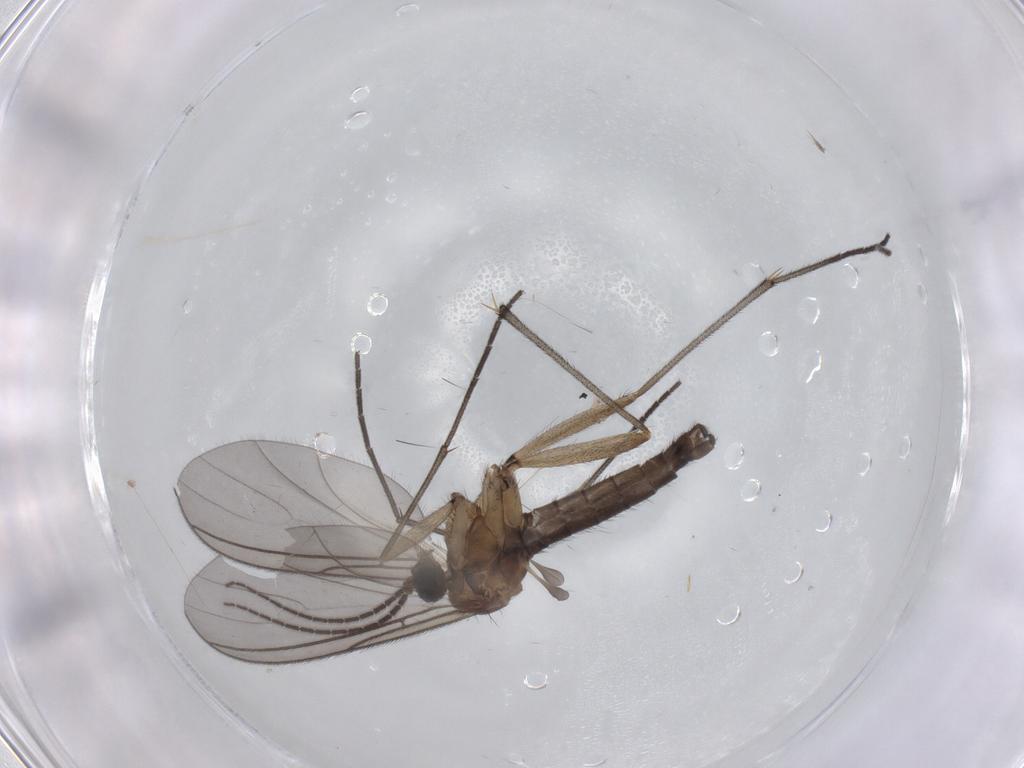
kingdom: Animalia
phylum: Arthropoda
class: Insecta
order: Diptera
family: Sciaridae
